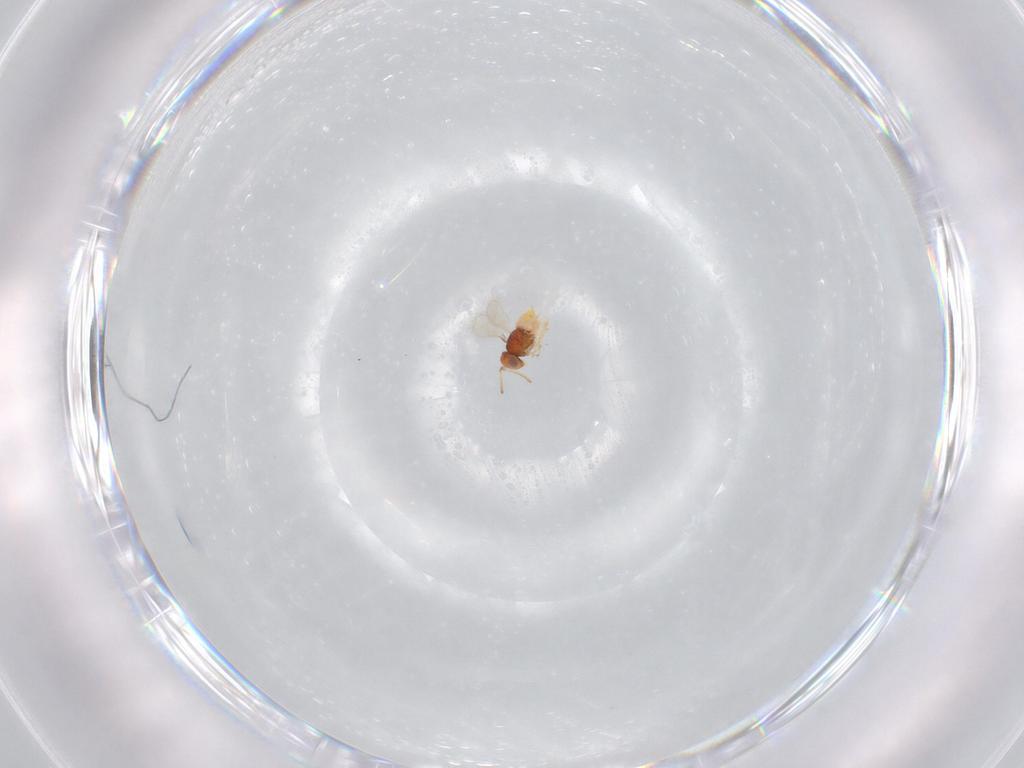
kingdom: Animalia
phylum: Arthropoda
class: Insecta
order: Hymenoptera
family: Aphelinidae
